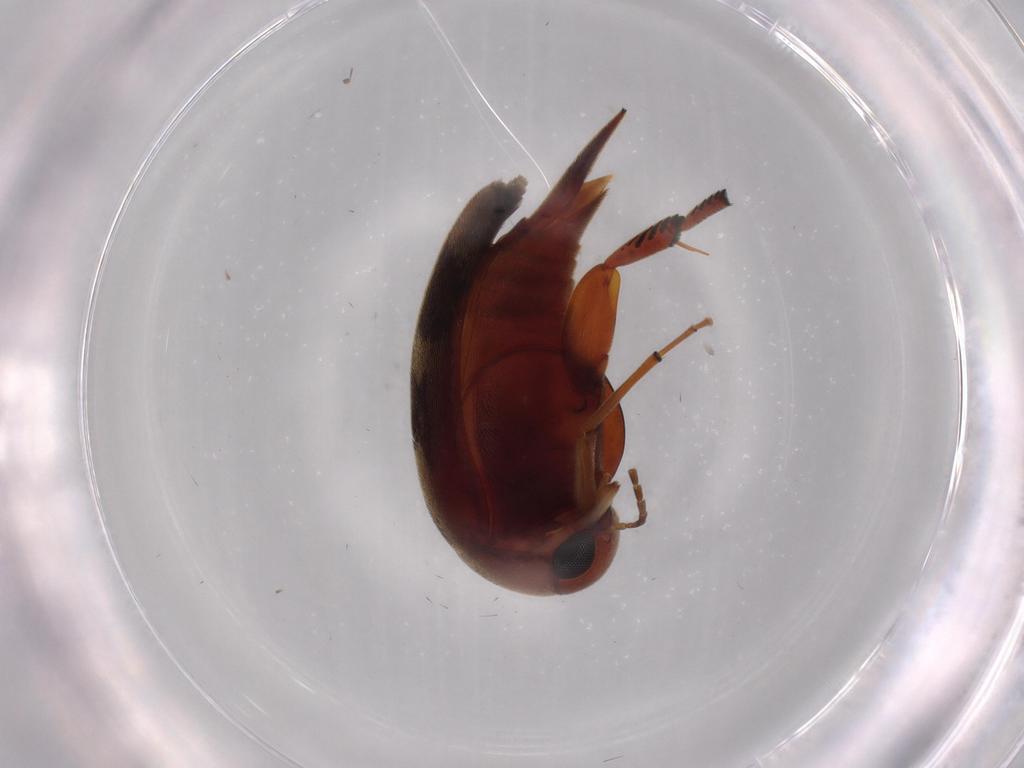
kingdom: Animalia
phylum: Arthropoda
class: Insecta
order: Coleoptera
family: Mordellidae
